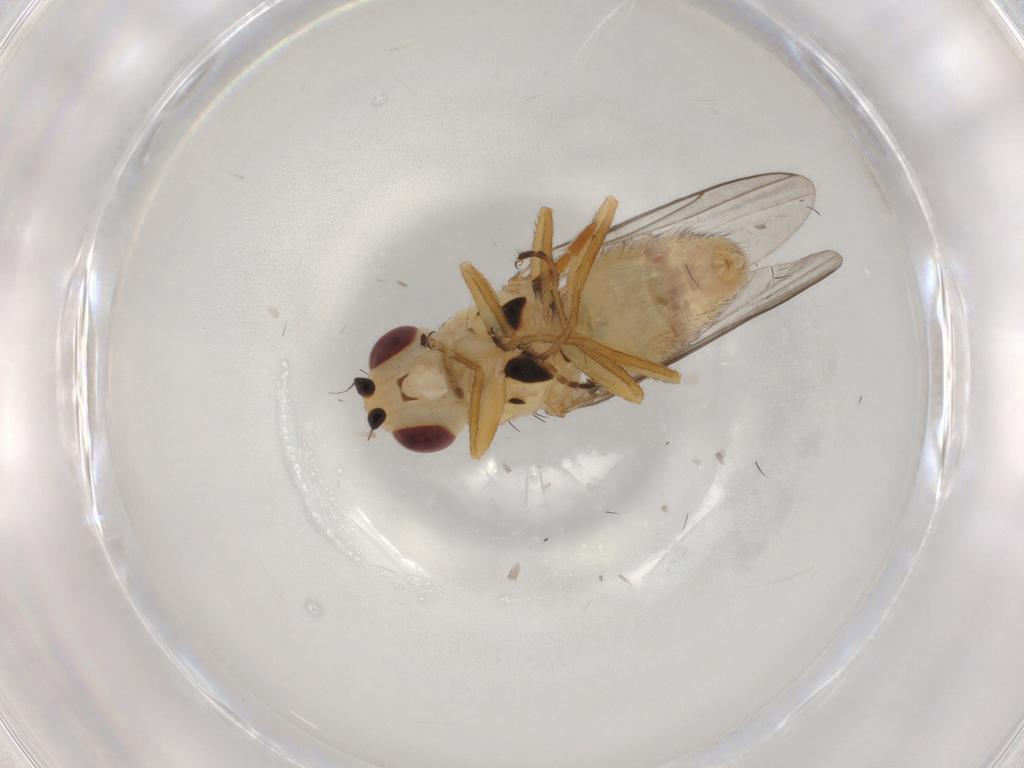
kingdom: Animalia
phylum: Arthropoda
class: Insecta
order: Diptera
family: Muscidae
